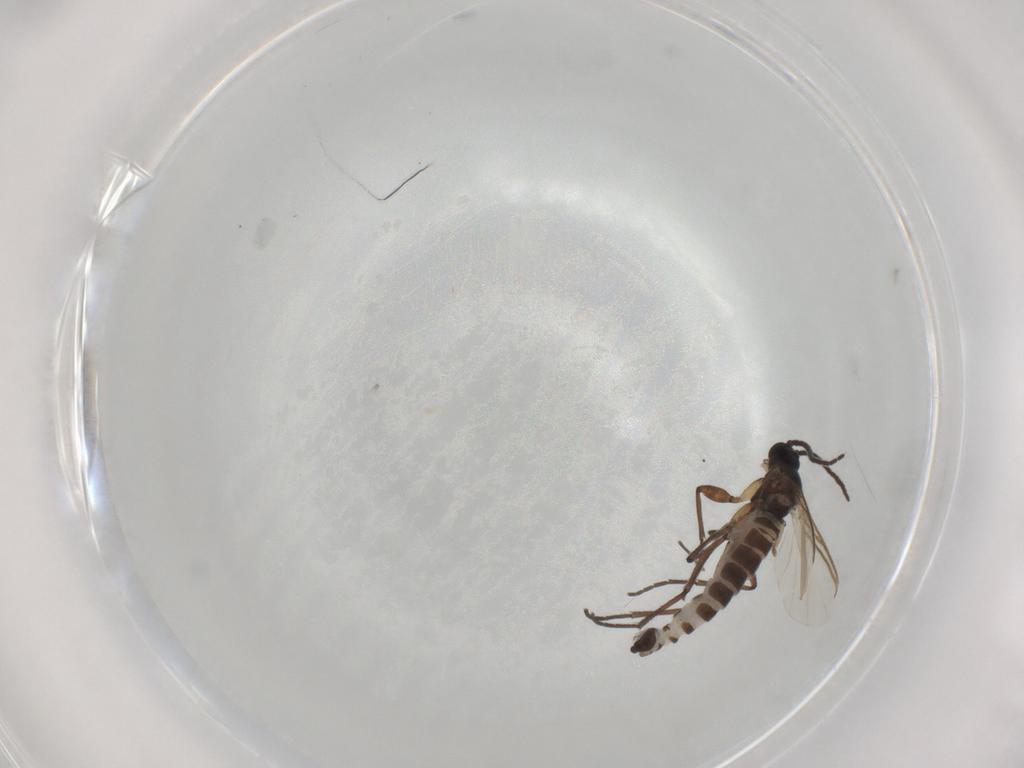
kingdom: Animalia
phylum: Arthropoda
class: Insecta
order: Diptera
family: Sciaridae
